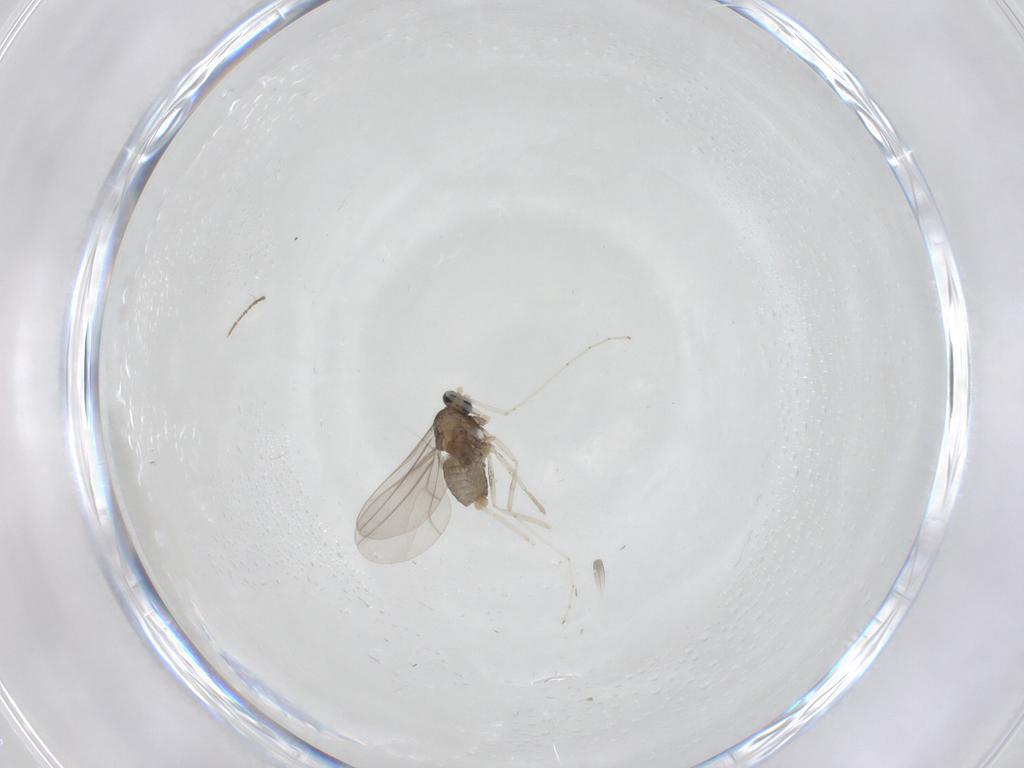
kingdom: Animalia
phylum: Arthropoda
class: Insecta
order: Diptera
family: Cecidomyiidae
